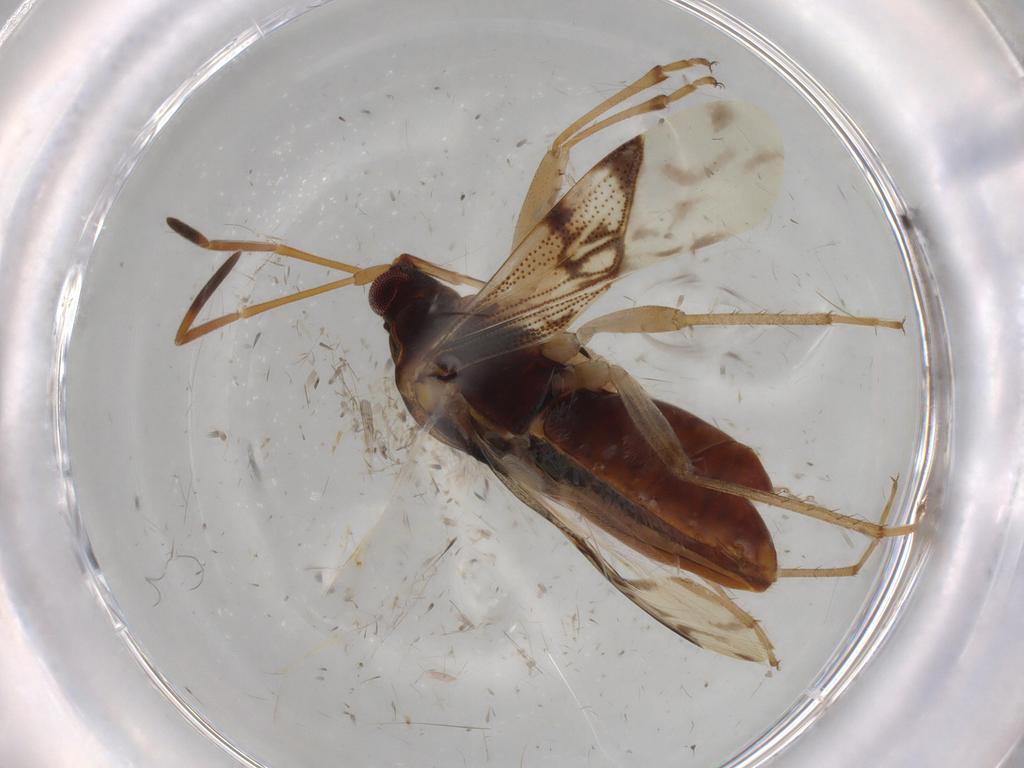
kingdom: Animalia
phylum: Arthropoda
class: Insecta
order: Hemiptera
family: Rhyparochromidae
